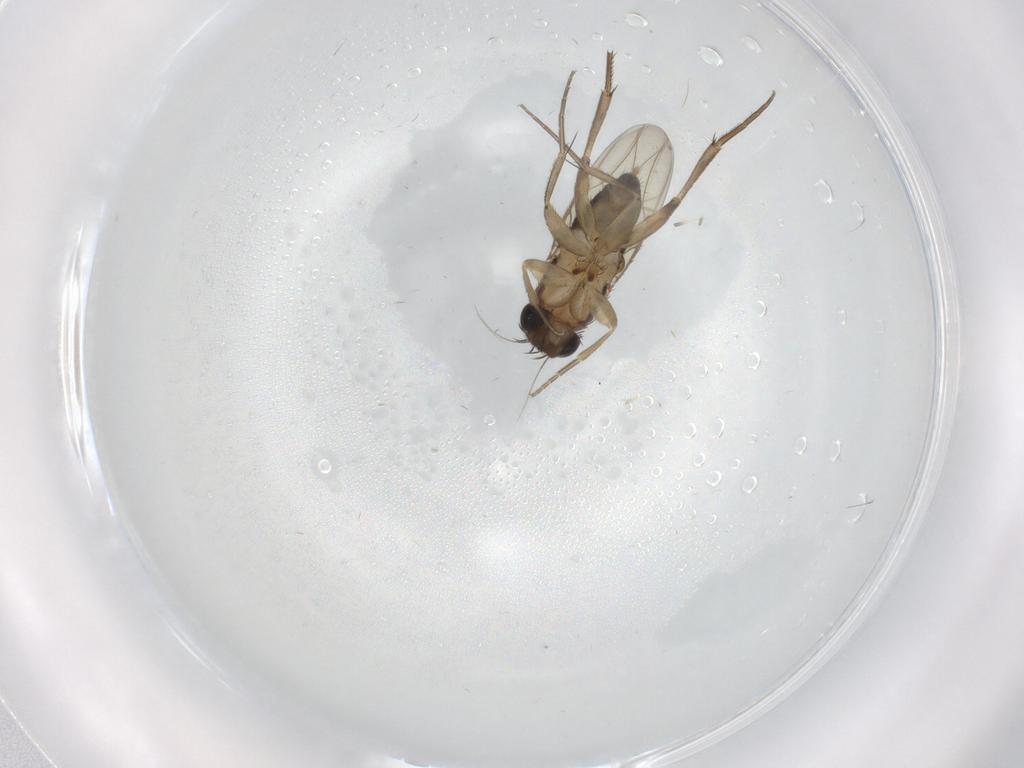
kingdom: Animalia
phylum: Arthropoda
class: Insecta
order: Diptera
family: Phoridae
